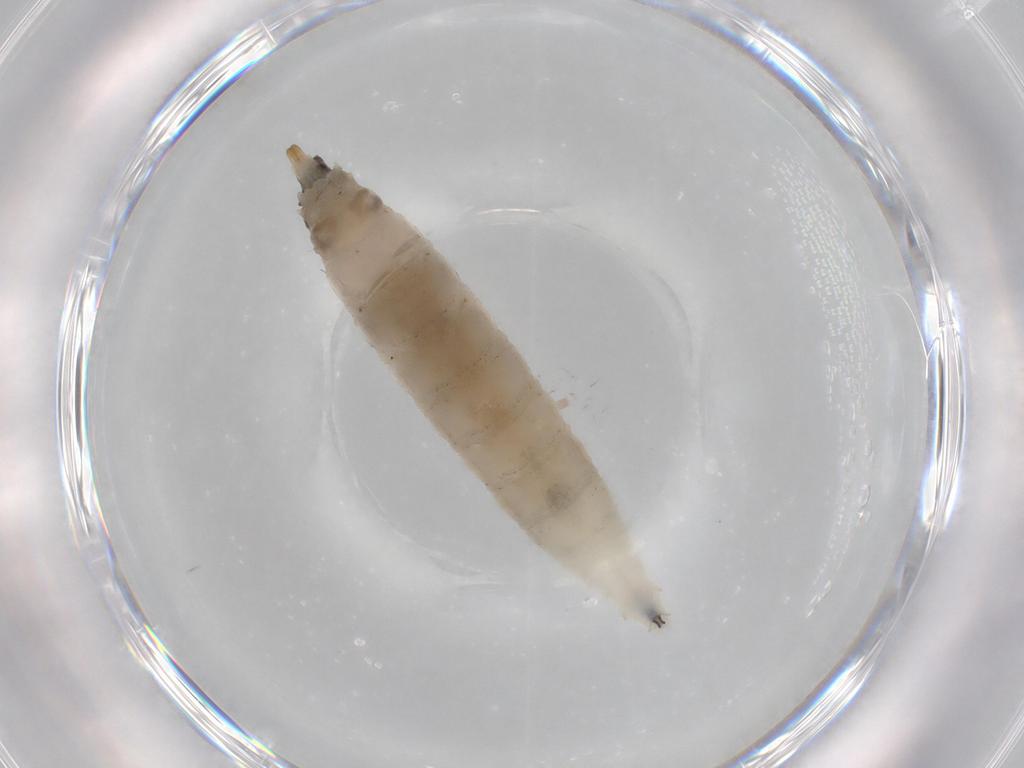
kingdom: Animalia
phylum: Arthropoda
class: Insecta
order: Diptera
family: Drosophilidae
